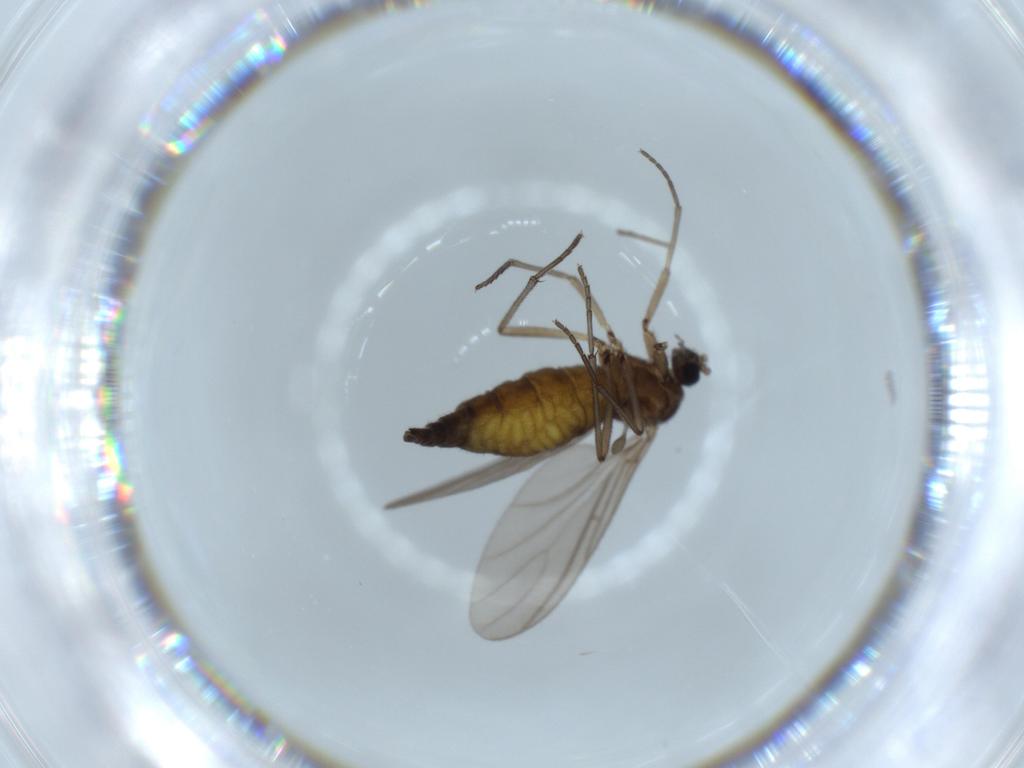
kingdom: Animalia
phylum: Arthropoda
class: Insecta
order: Diptera
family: Sciaridae
